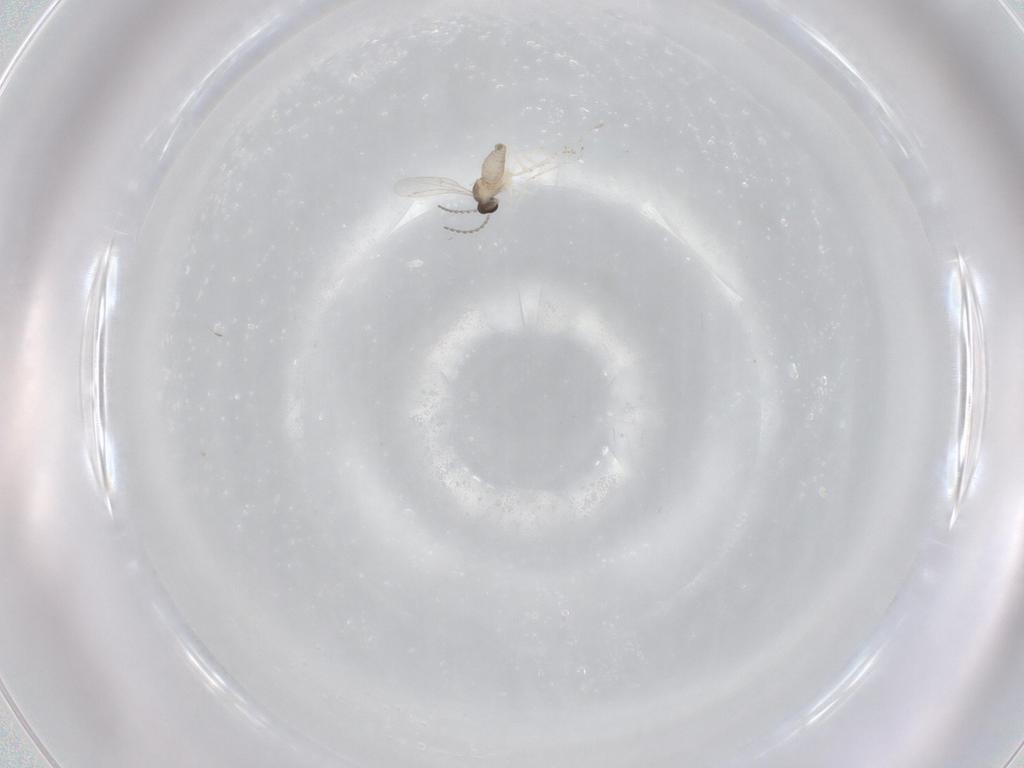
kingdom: Animalia
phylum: Arthropoda
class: Insecta
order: Diptera
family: Cecidomyiidae
